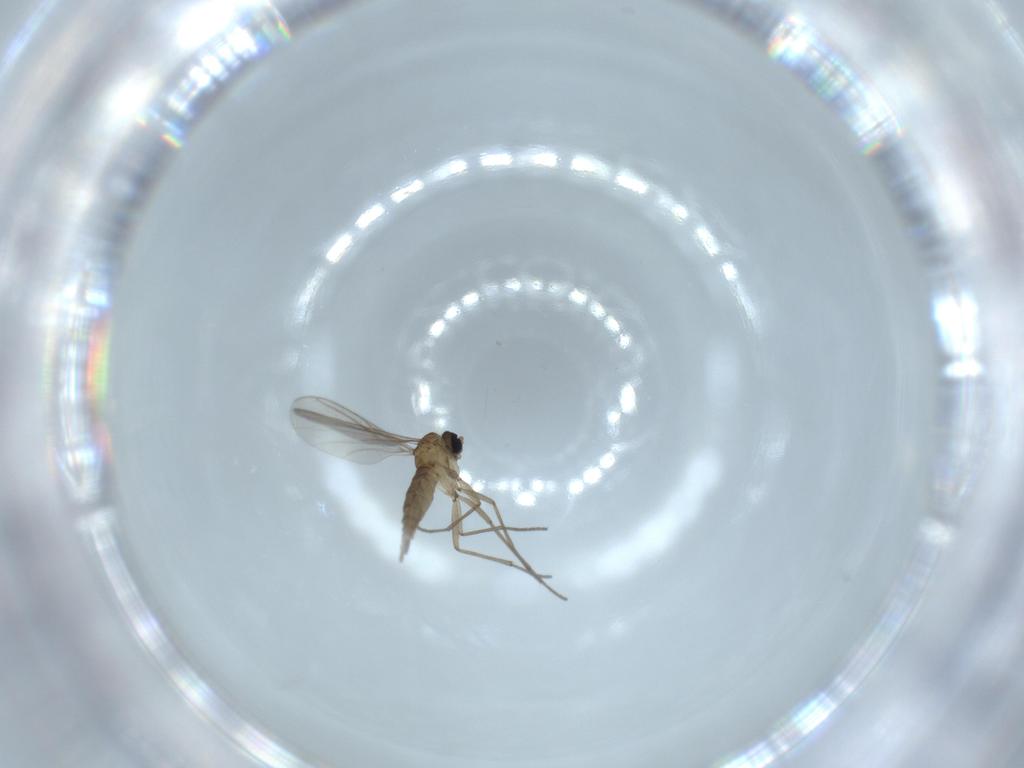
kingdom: Animalia
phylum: Arthropoda
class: Insecta
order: Diptera
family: Sciaridae
